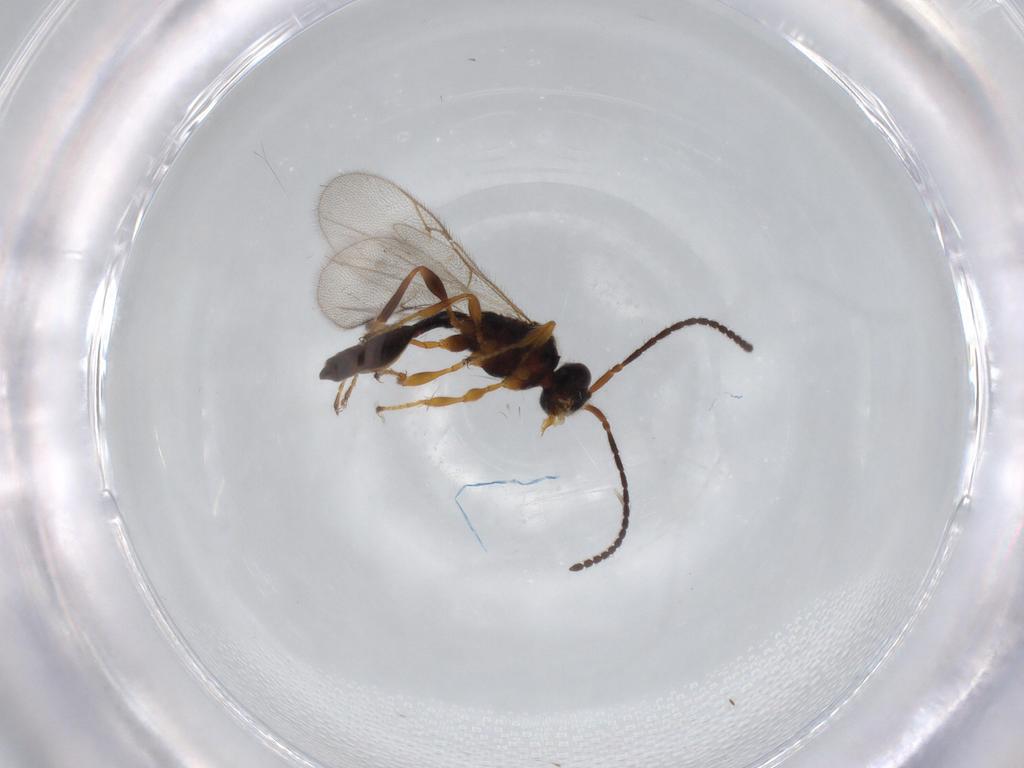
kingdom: Animalia
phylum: Arthropoda
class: Insecta
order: Hymenoptera
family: Diapriidae
